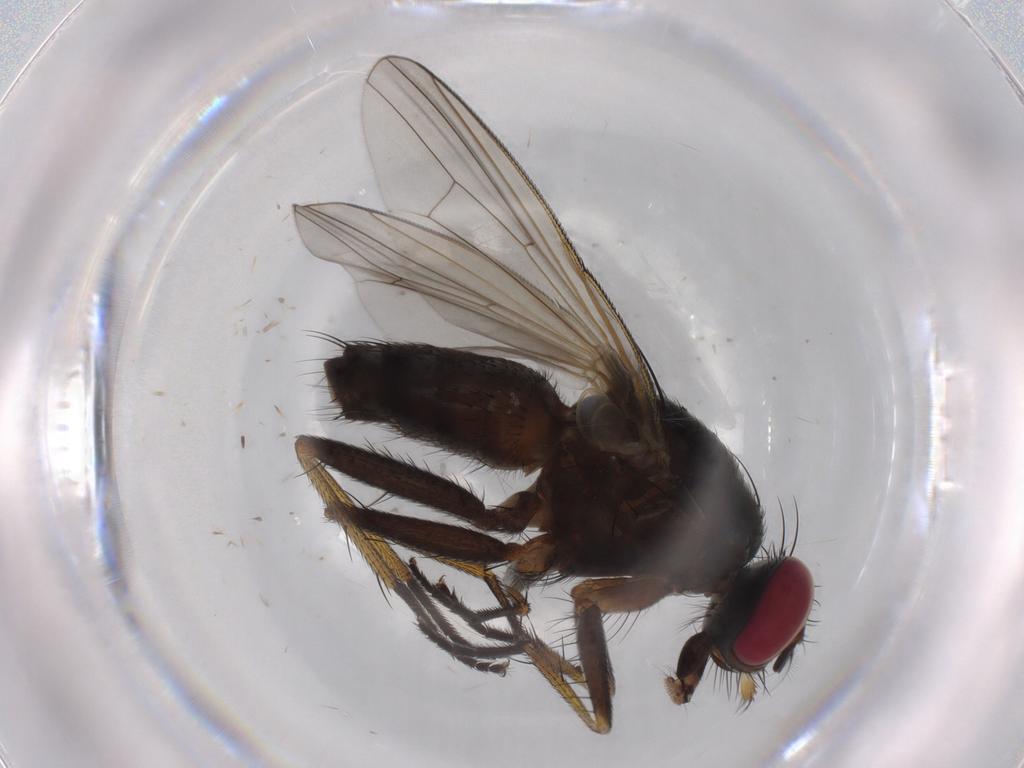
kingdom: Animalia
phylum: Arthropoda
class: Insecta
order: Diptera
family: Muscidae
